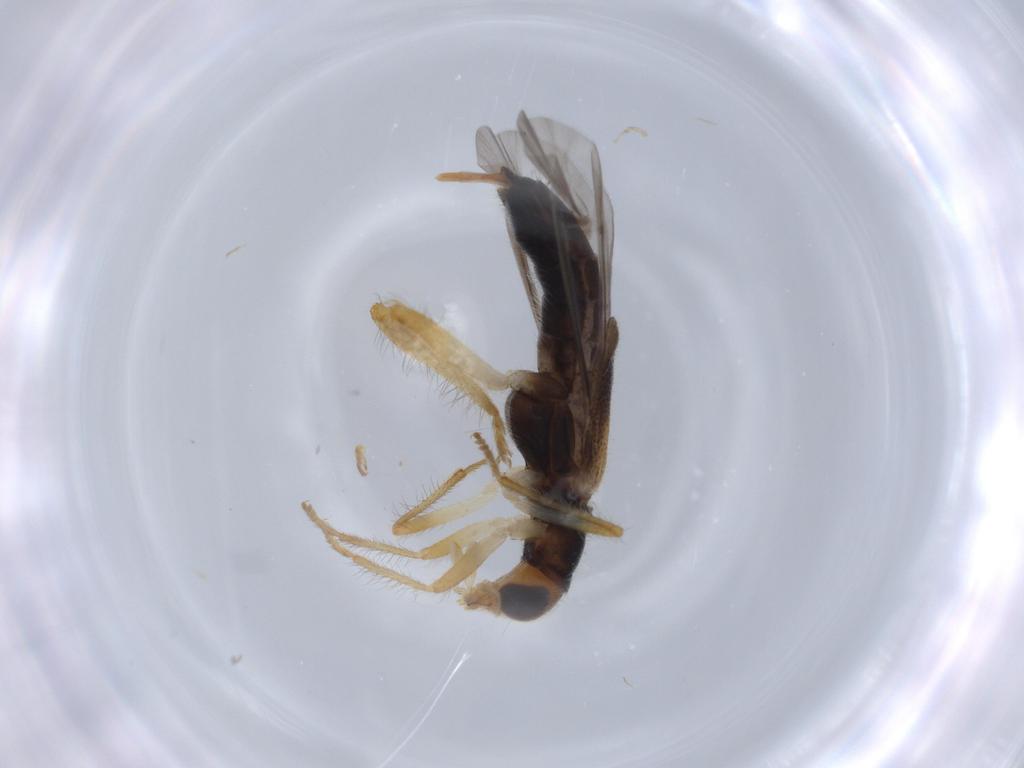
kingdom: Animalia
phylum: Arthropoda
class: Insecta
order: Coleoptera
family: Cleridae
